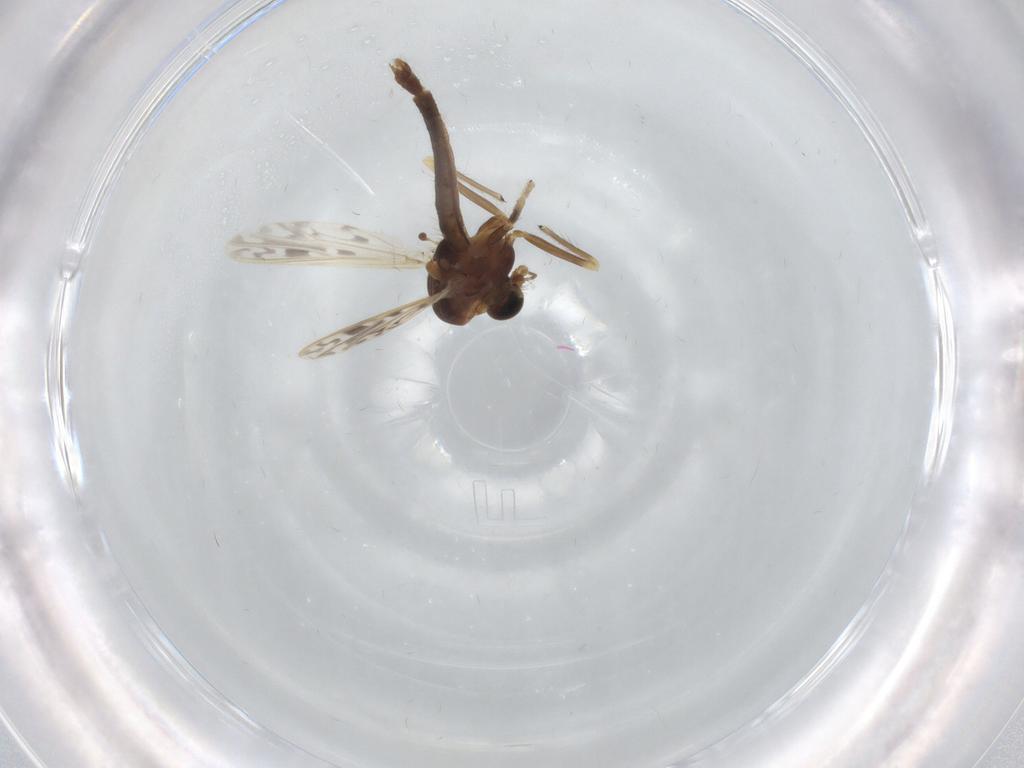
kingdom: Animalia
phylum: Arthropoda
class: Insecta
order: Diptera
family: Chironomidae
